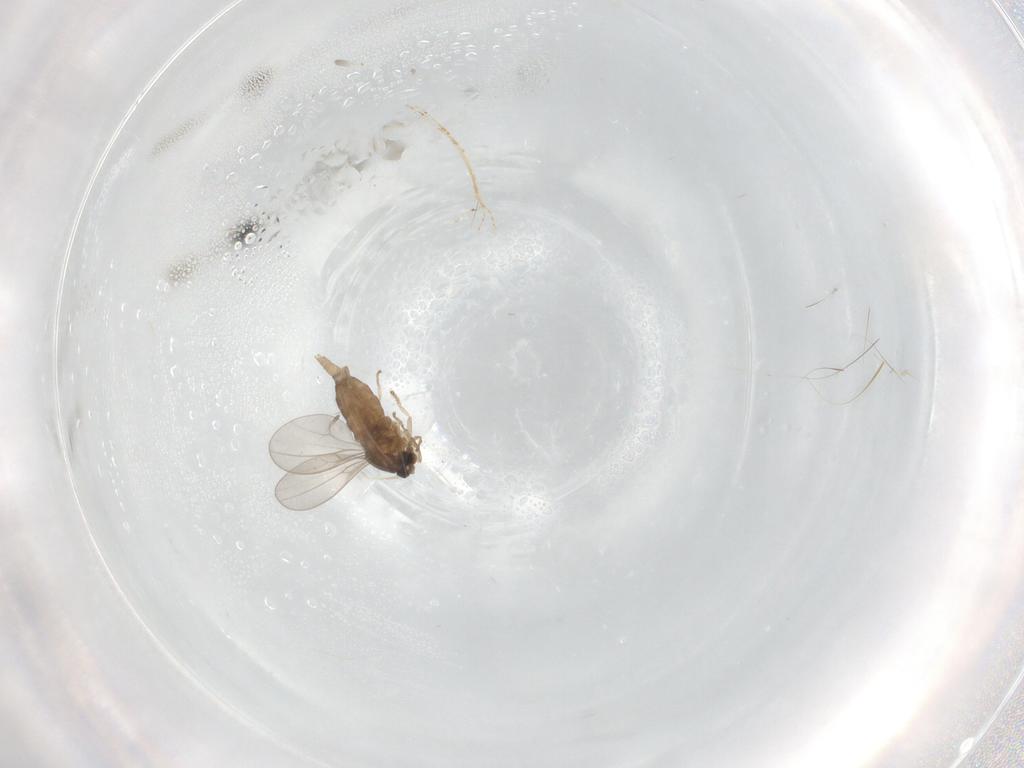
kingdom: Animalia
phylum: Arthropoda
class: Insecta
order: Diptera
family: Cecidomyiidae
